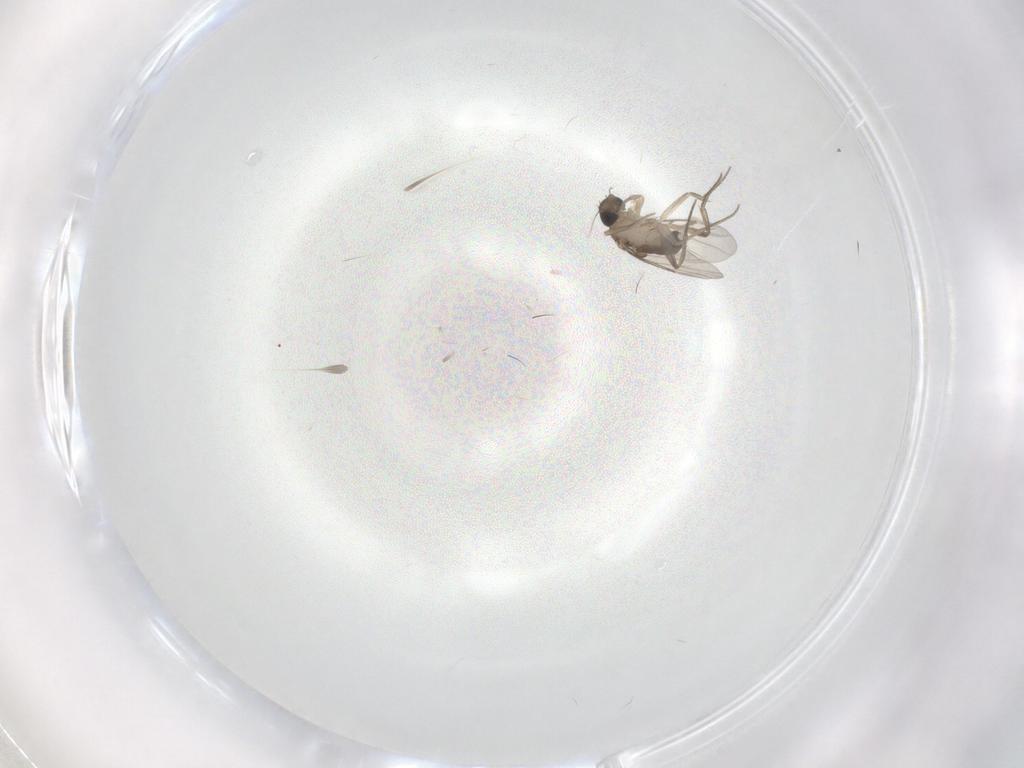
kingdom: Animalia
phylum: Arthropoda
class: Insecta
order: Diptera
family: Phoridae
